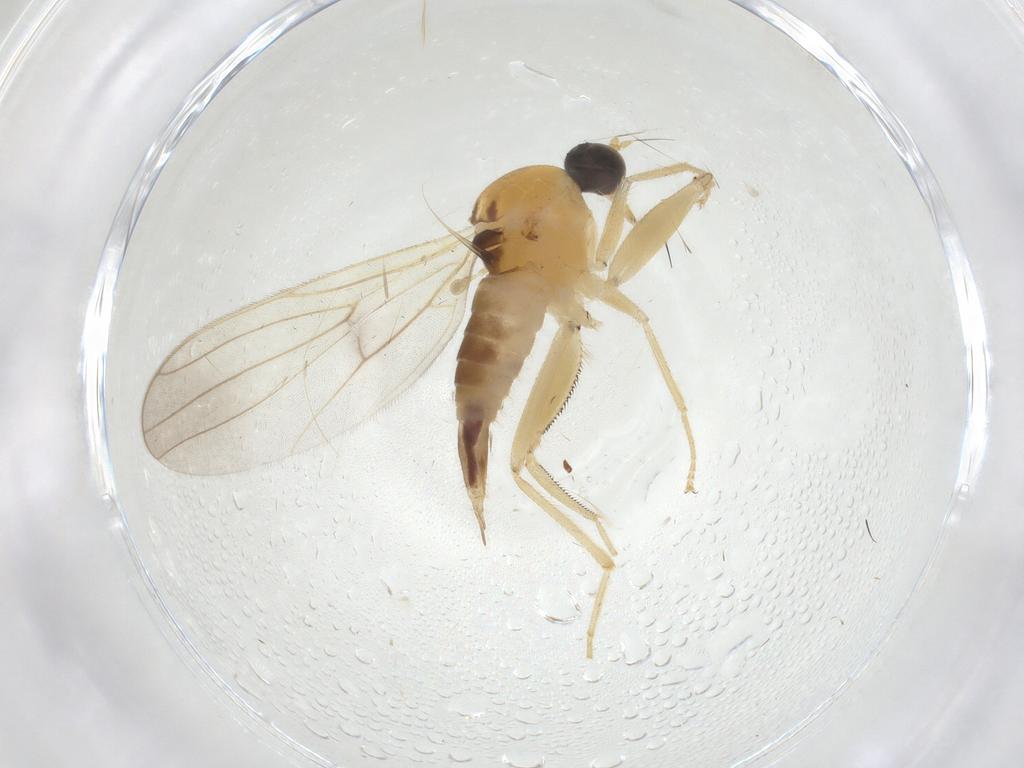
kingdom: Animalia
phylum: Arthropoda
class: Insecta
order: Diptera
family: Hybotidae
